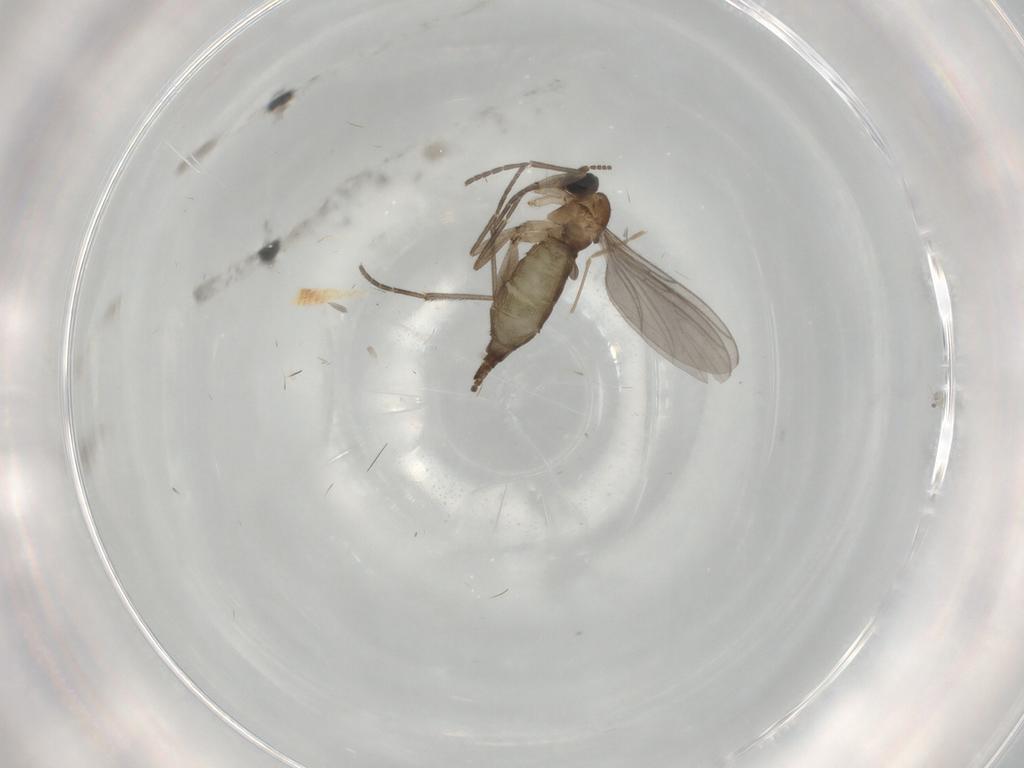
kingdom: Animalia
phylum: Arthropoda
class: Insecta
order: Diptera
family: Sciaridae
